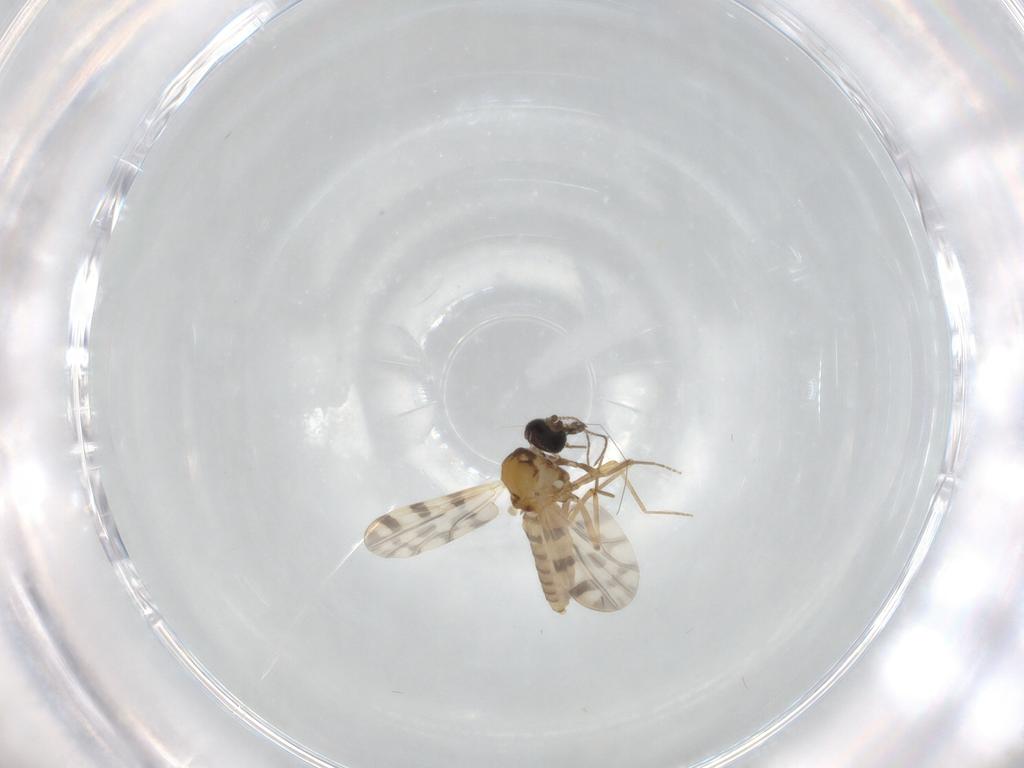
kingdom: Animalia
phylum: Arthropoda
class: Insecta
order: Diptera
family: Ceratopogonidae
